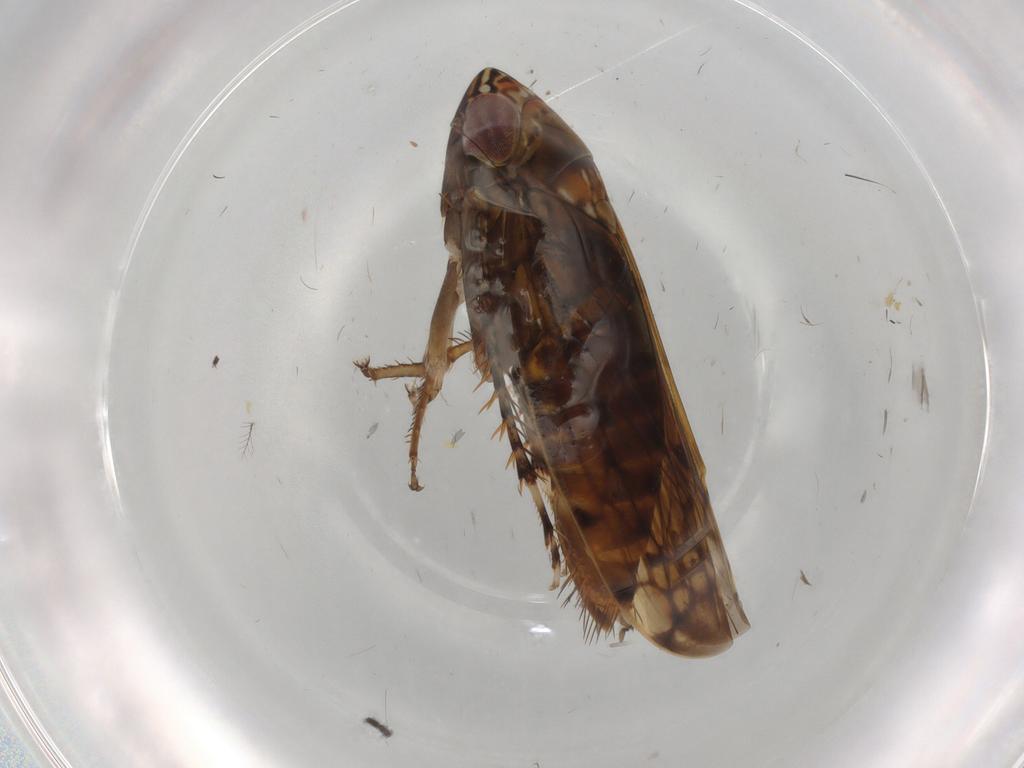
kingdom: Animalia
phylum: Arthropoda
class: Insecta
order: Hemiptera
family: Cicadellidae
